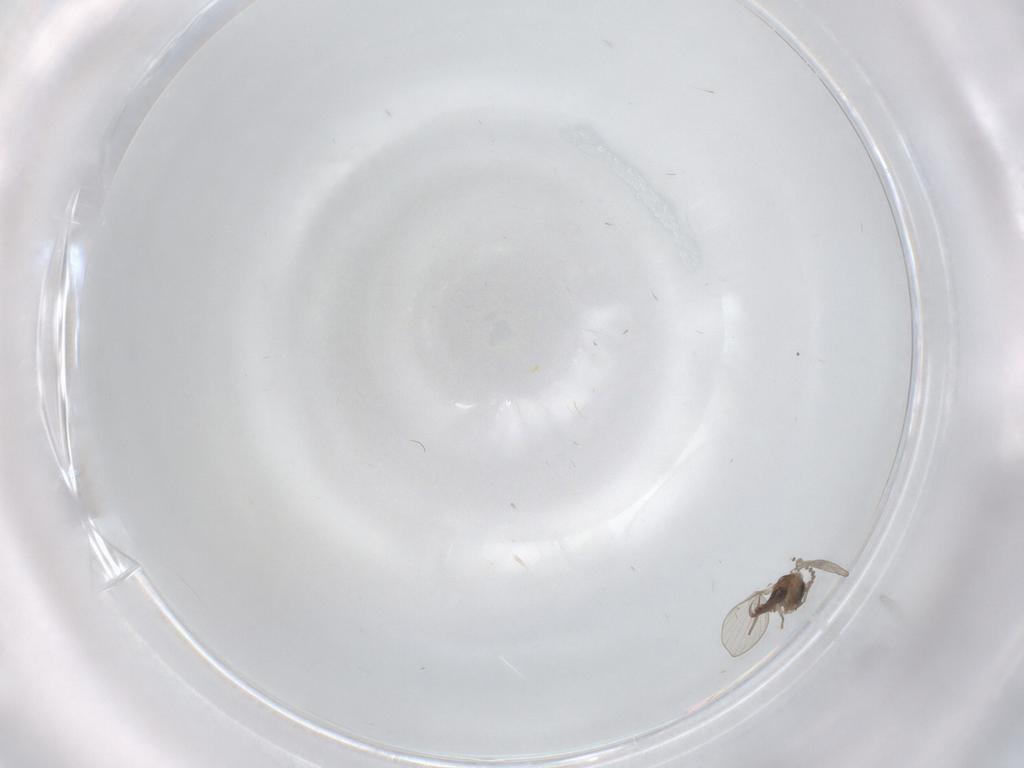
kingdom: Animalia
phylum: Arthropoda
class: Insecta
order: Diptera
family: Psychodidae
